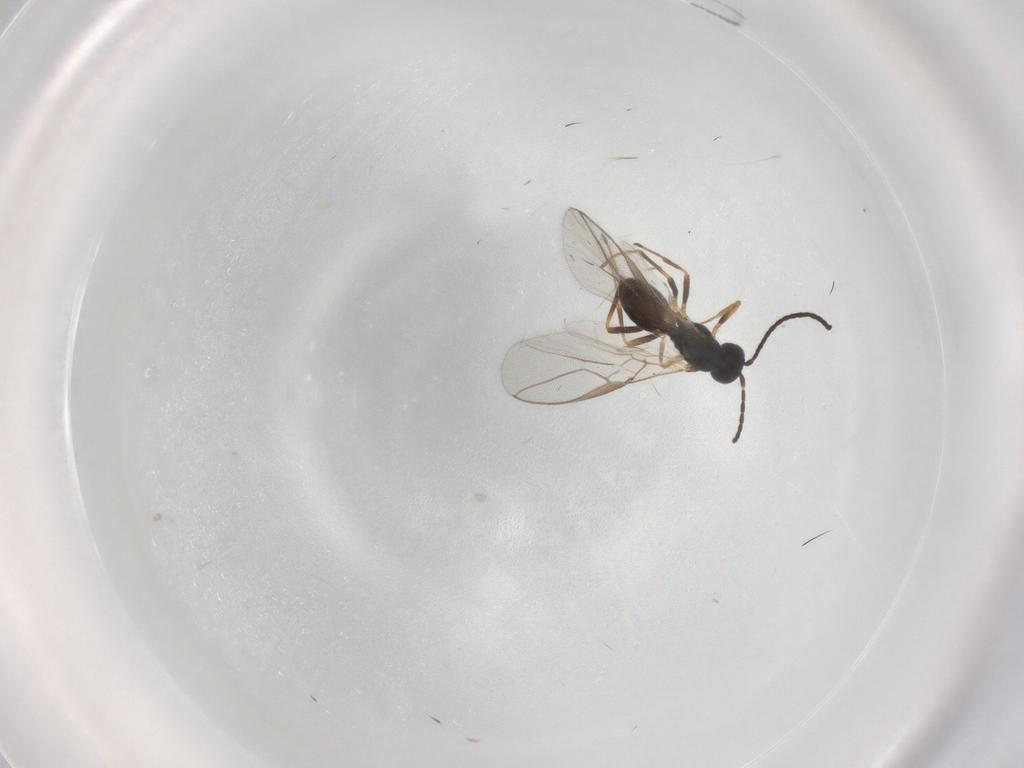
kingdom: Animalia
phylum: Arthropoda
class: Insecta
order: Hymenoptera
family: Braconidae
